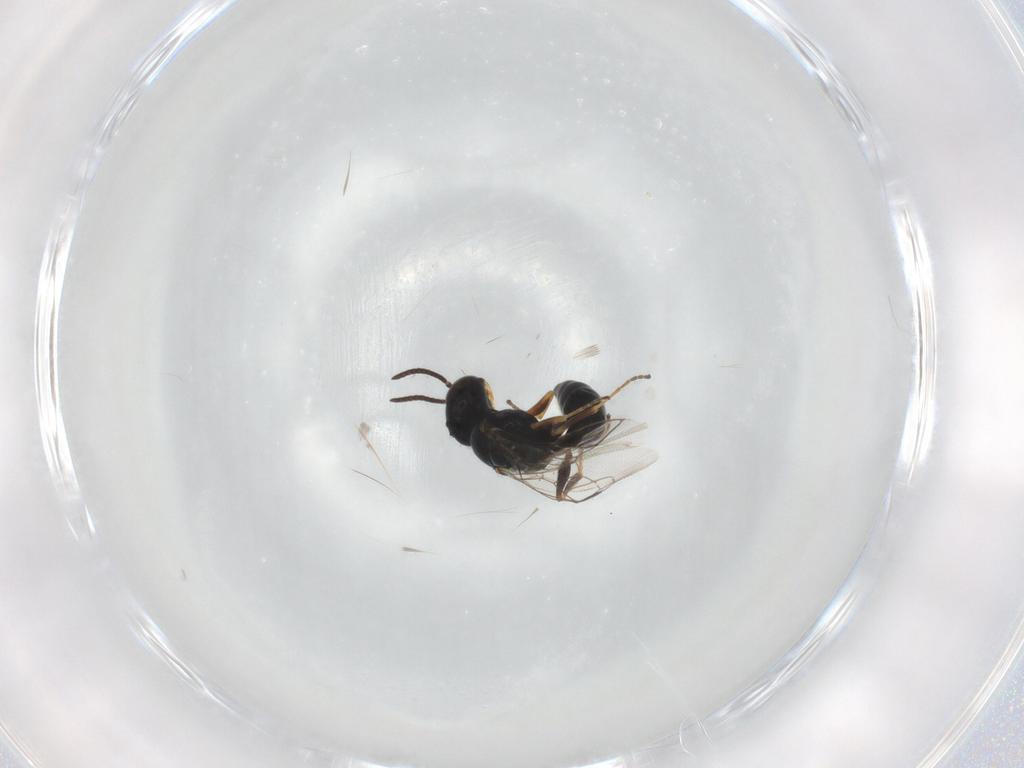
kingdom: Animalia
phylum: Arthropoda
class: Insecta
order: Hymenoptera
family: Pemphredonidae
